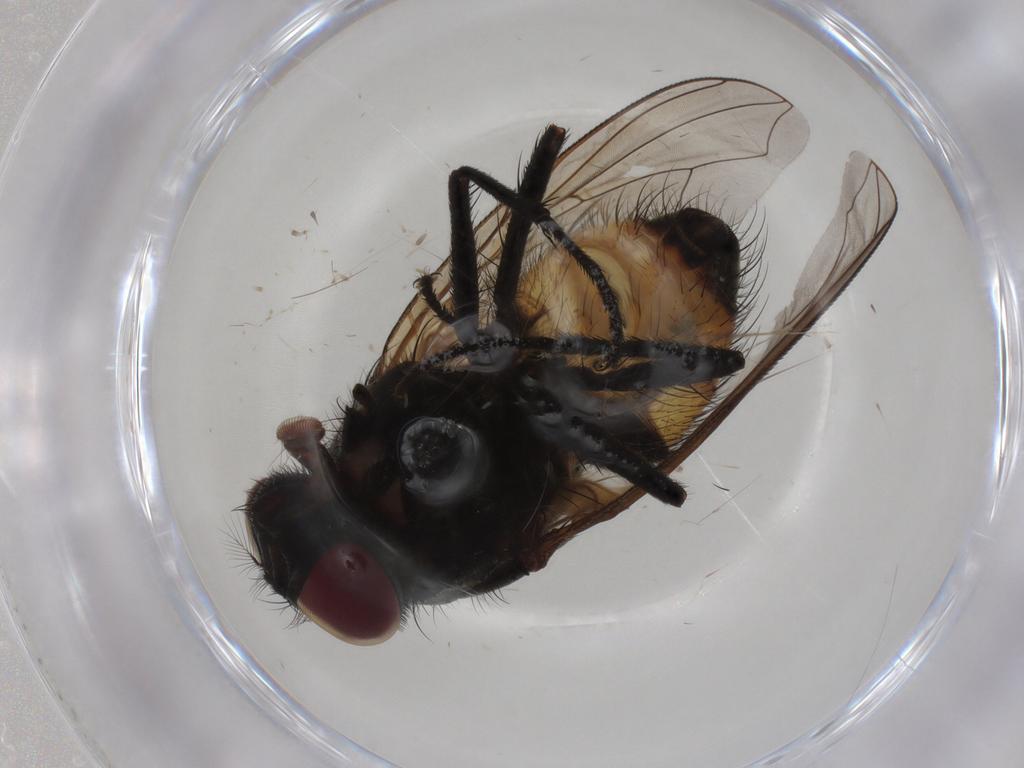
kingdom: Animalia
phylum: Arthropoda
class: Insecta
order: Diptera
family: Muscidae
